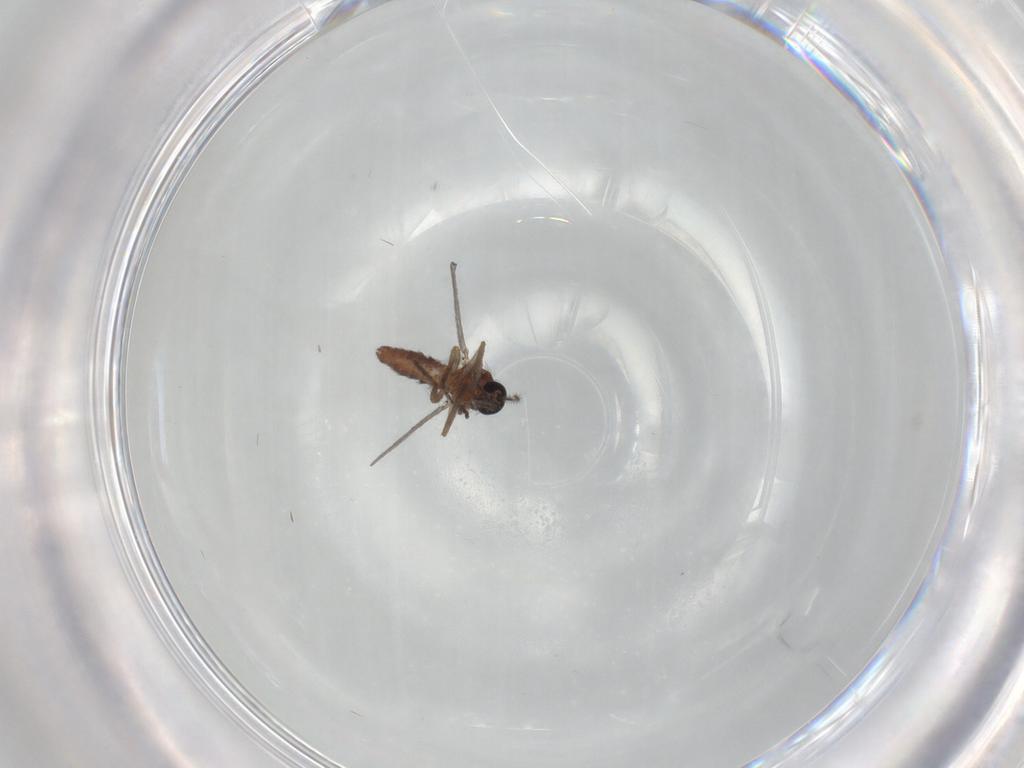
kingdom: Animalia
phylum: Arthropoda
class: Insecta
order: Diptera
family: Ceratopogonidae
